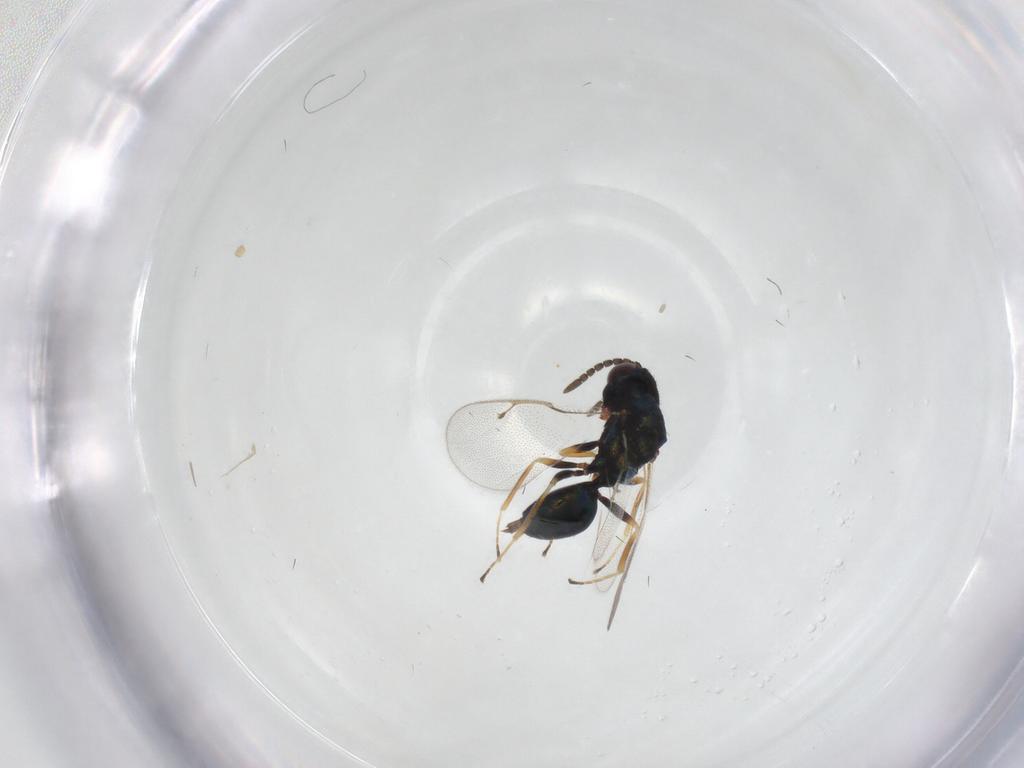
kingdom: Animalia
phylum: Arthropoda
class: Insecta
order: Hymenoptera
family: Pteromalidae
